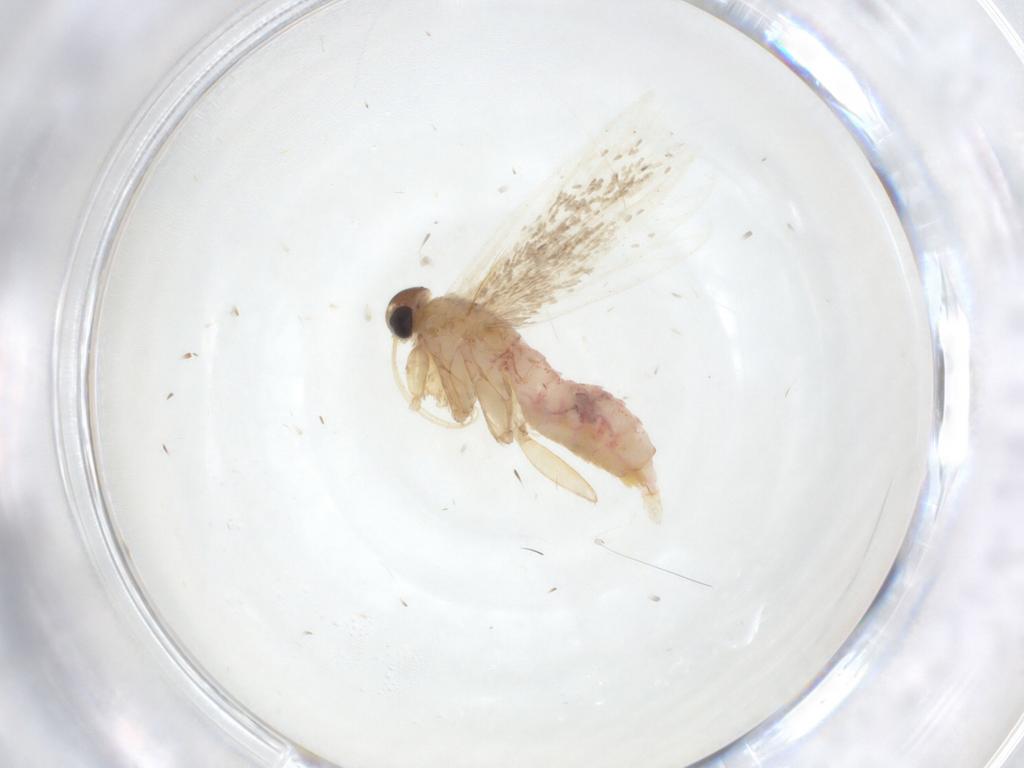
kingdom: Animalia
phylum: Arthropoda
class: Insecta
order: Lepidoptera
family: Gelechiidae
